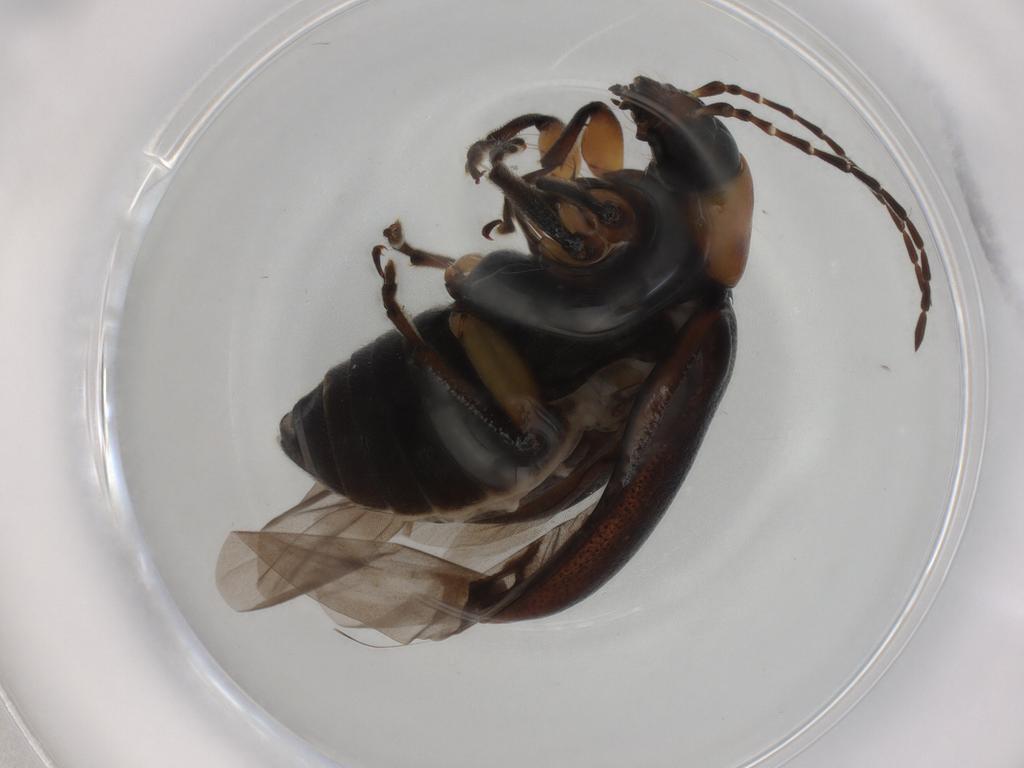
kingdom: Animalia
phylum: Arthropoda
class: Insecta
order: Coleoptera
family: Chrysomelidae
